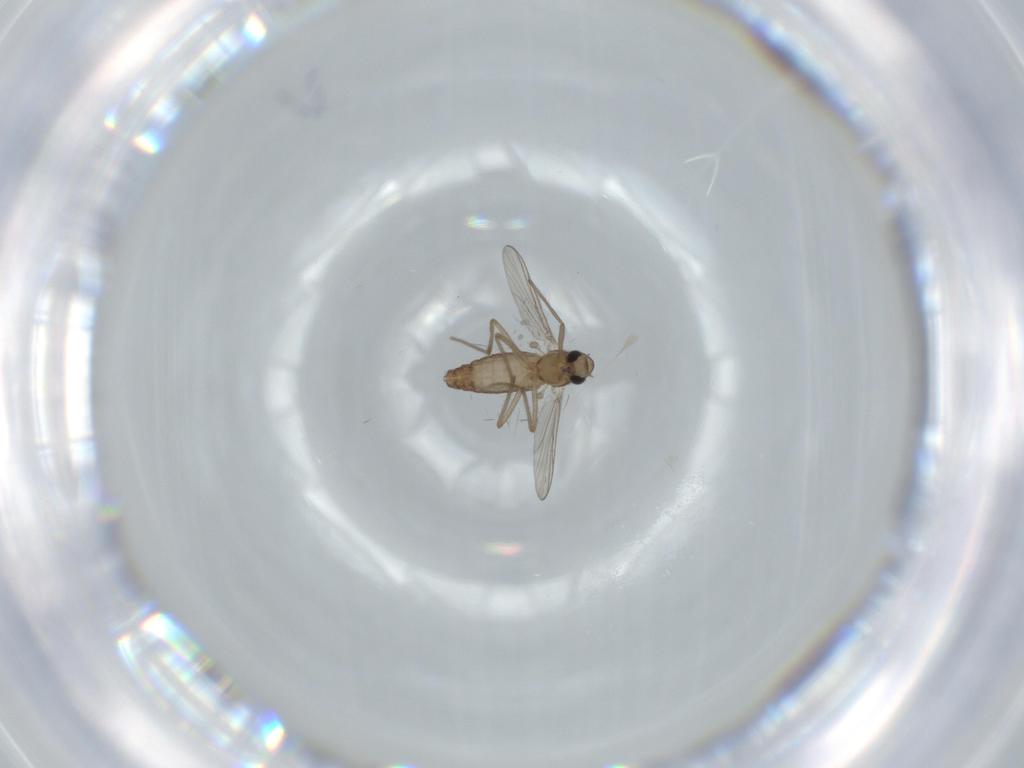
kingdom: Animalia
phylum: Arthropoda
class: Insecta
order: Diptera
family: Chironomidae
